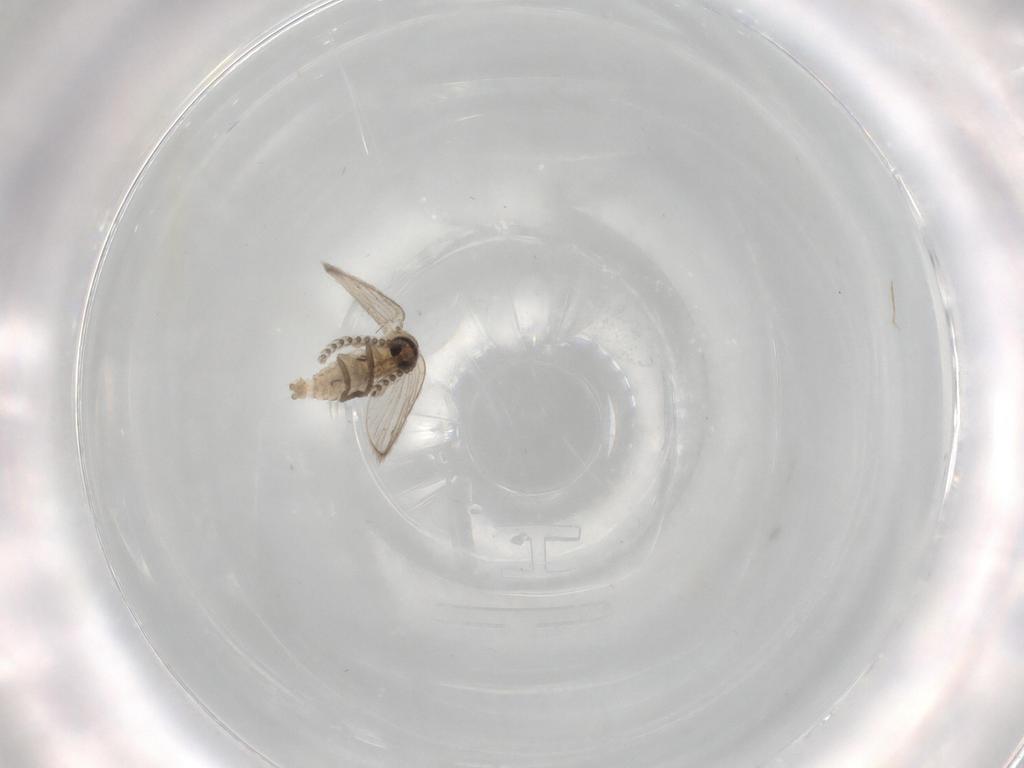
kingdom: Animalia
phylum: Arthropoda
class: Insecta
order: Diptera
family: Psychodidae
